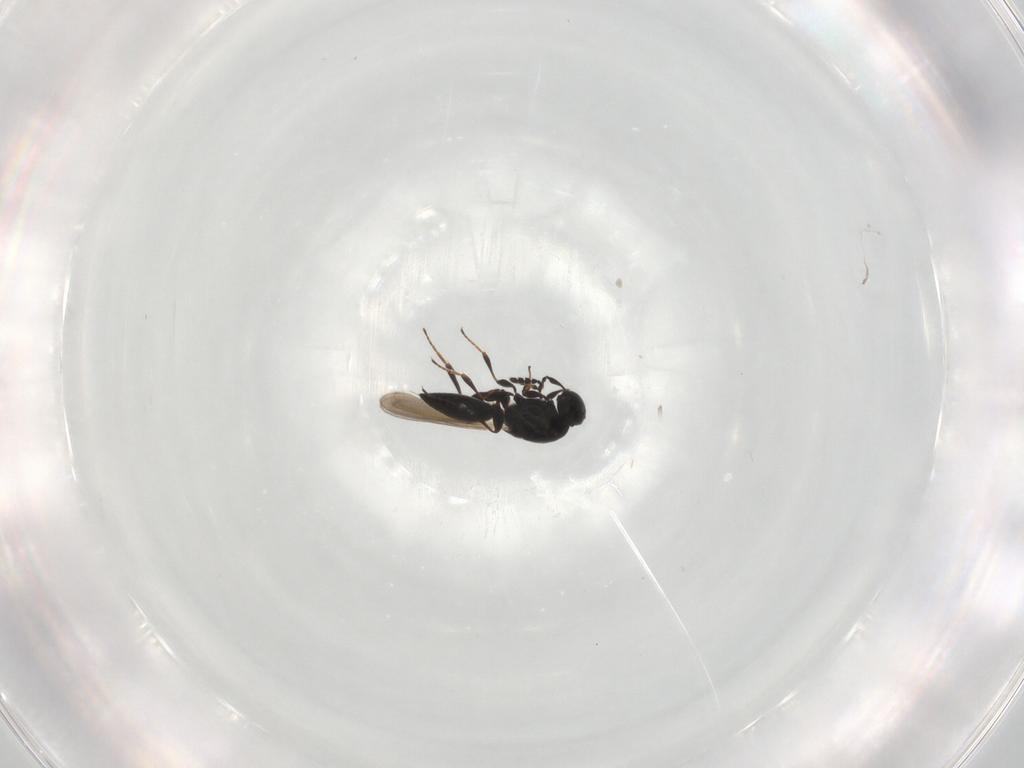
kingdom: Animalia
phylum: Arthropoda
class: Insecta
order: Hymenoptera
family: Platygastridae
